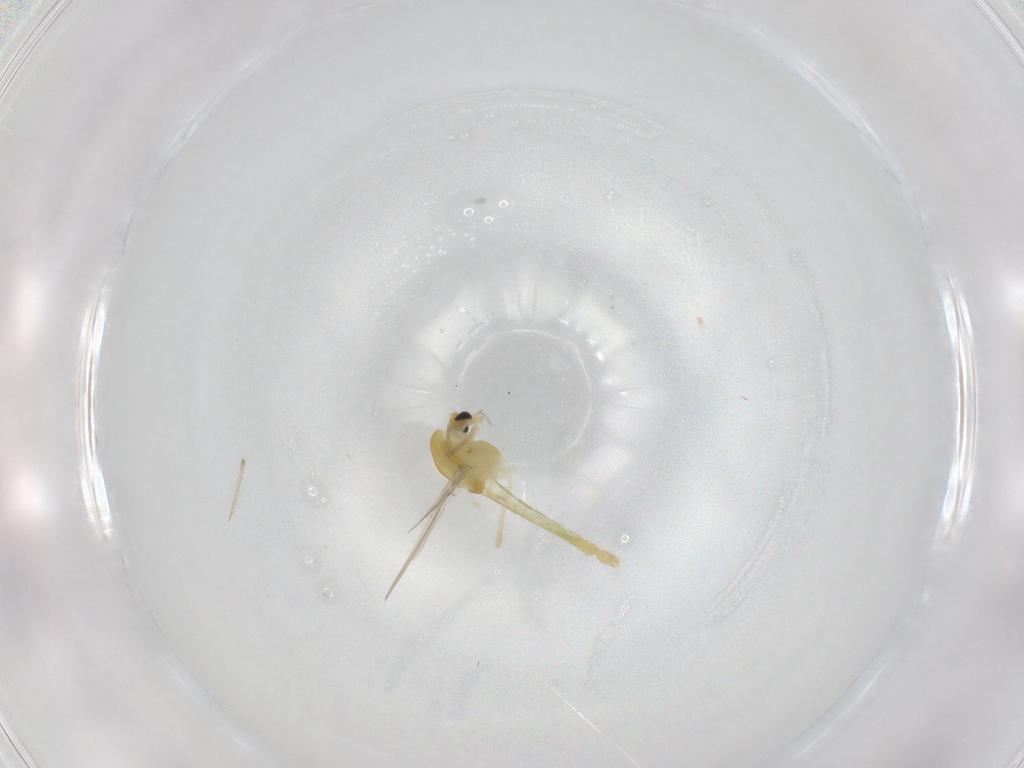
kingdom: Animalia
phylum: Arthropoda
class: Insecta
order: Diptera
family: Chironomidae
